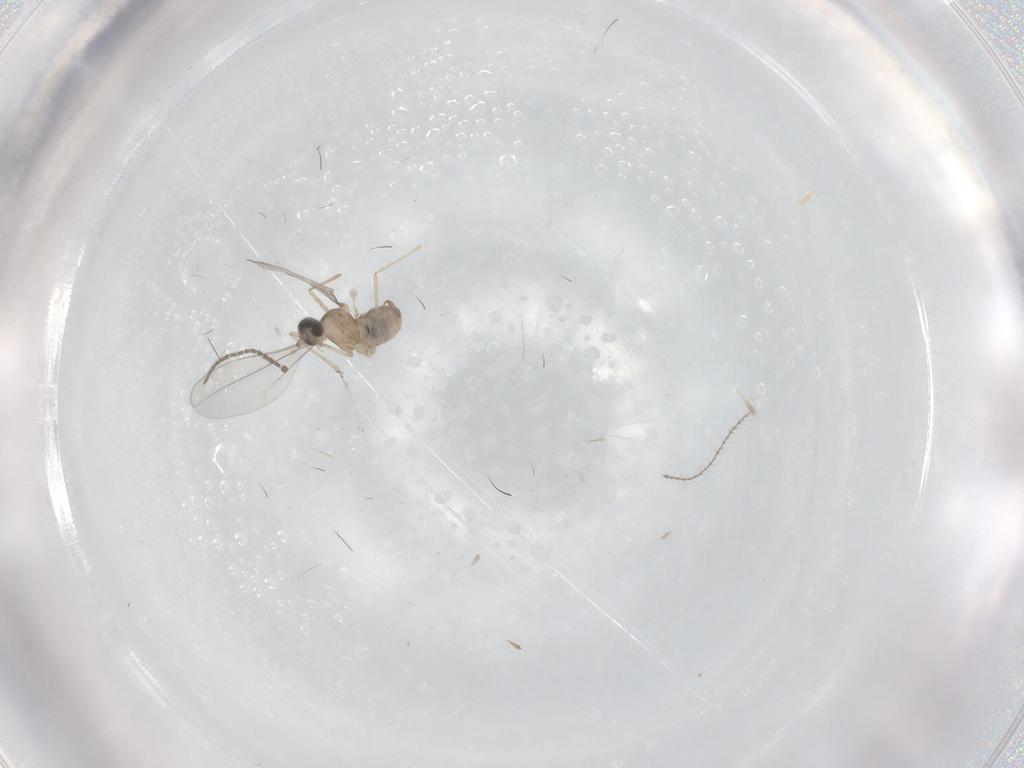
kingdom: Animalia
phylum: Arthropoda
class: Insecta
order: Diptera
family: Cecidomyiidae
